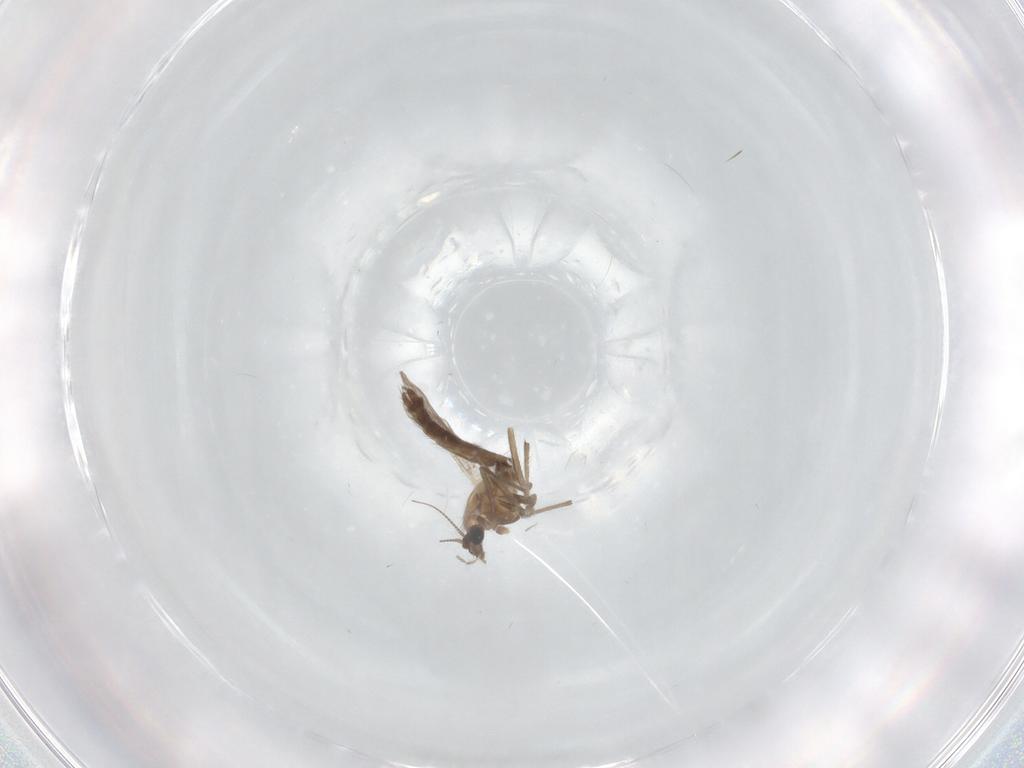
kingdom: Animalia
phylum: Arthropoda
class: Insecta
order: Diptera
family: Chironomidae
